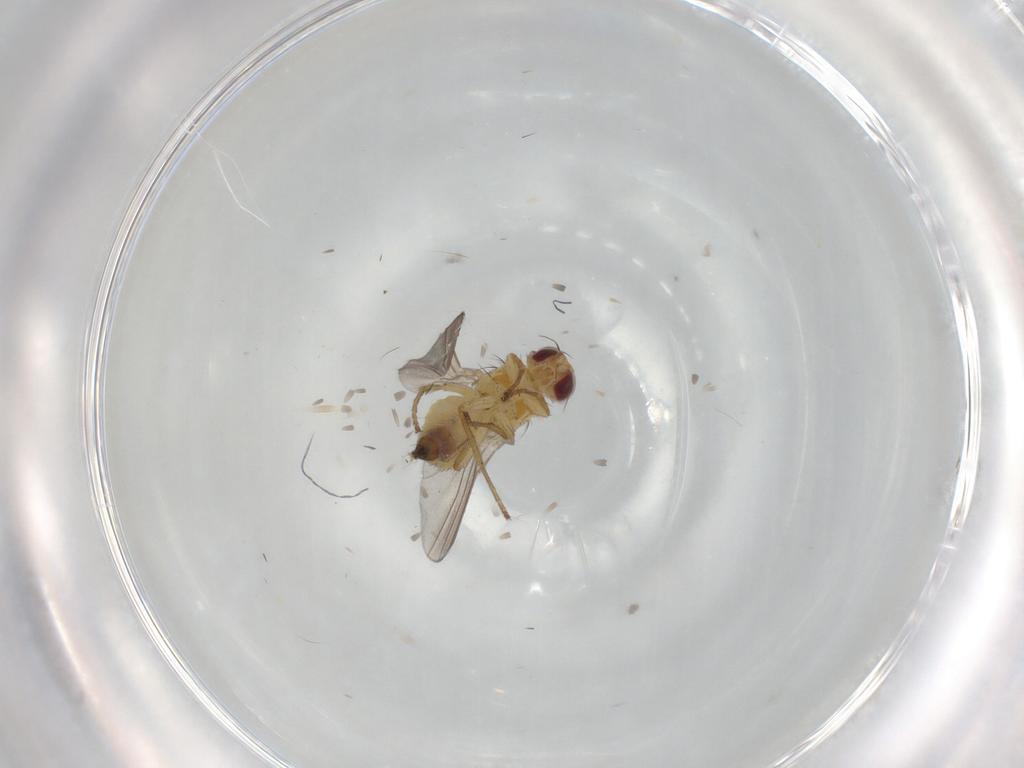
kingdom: Animalia
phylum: Arthropoda
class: Insecta
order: Diptera
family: Agromyzidae
